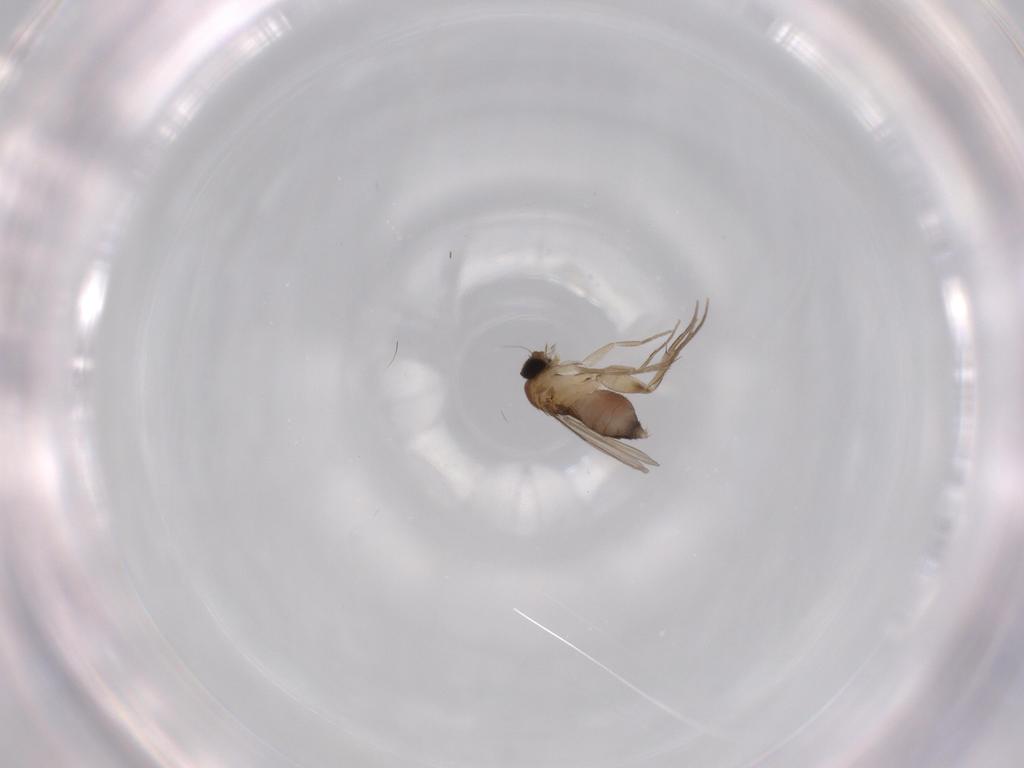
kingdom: Animalia
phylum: Arthropoda
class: Insecta
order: Diptera
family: Phoridae
